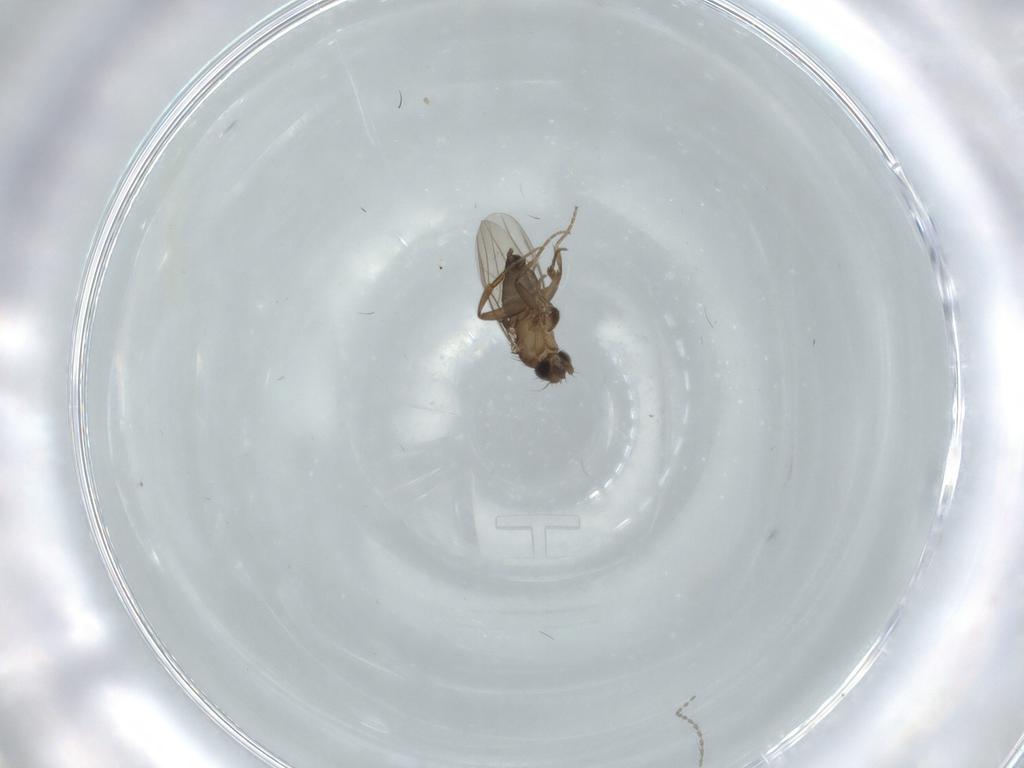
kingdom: Animalia
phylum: Arthropoda
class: Insecta
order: Diptera
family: Cecidomyiidae
